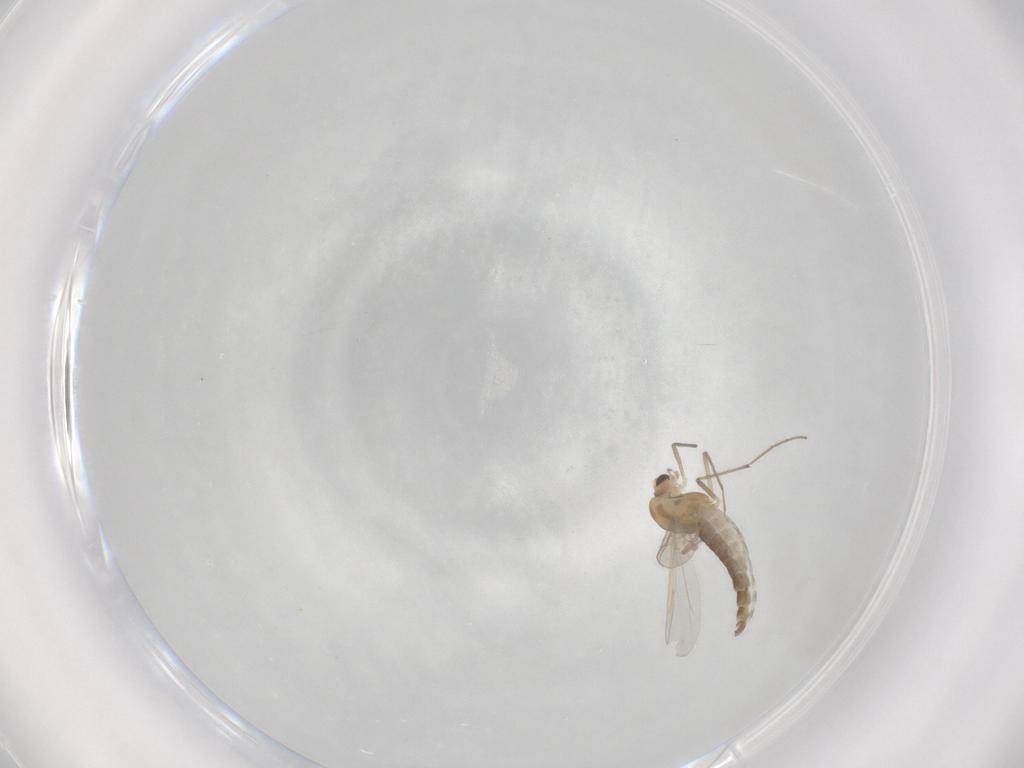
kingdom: Animalia
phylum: Arthropoda
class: Insecta
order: Diptera
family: Chironomidae
